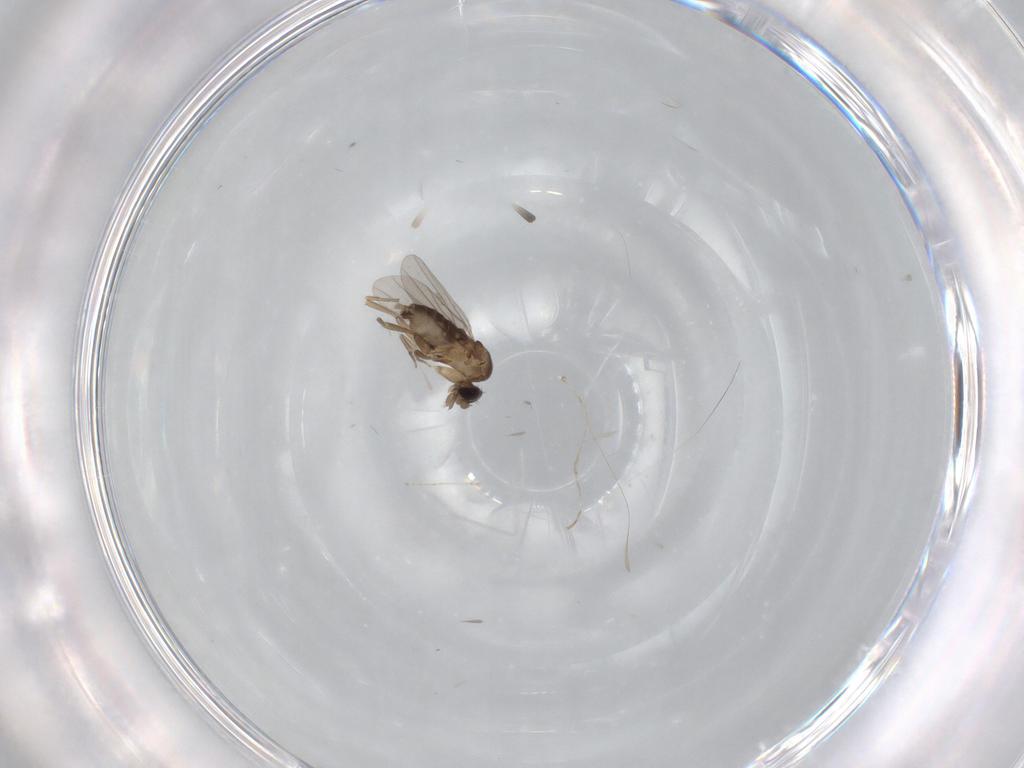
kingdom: Animalia
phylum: Arthropoda
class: Insecta
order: Diptera
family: Phoridae
